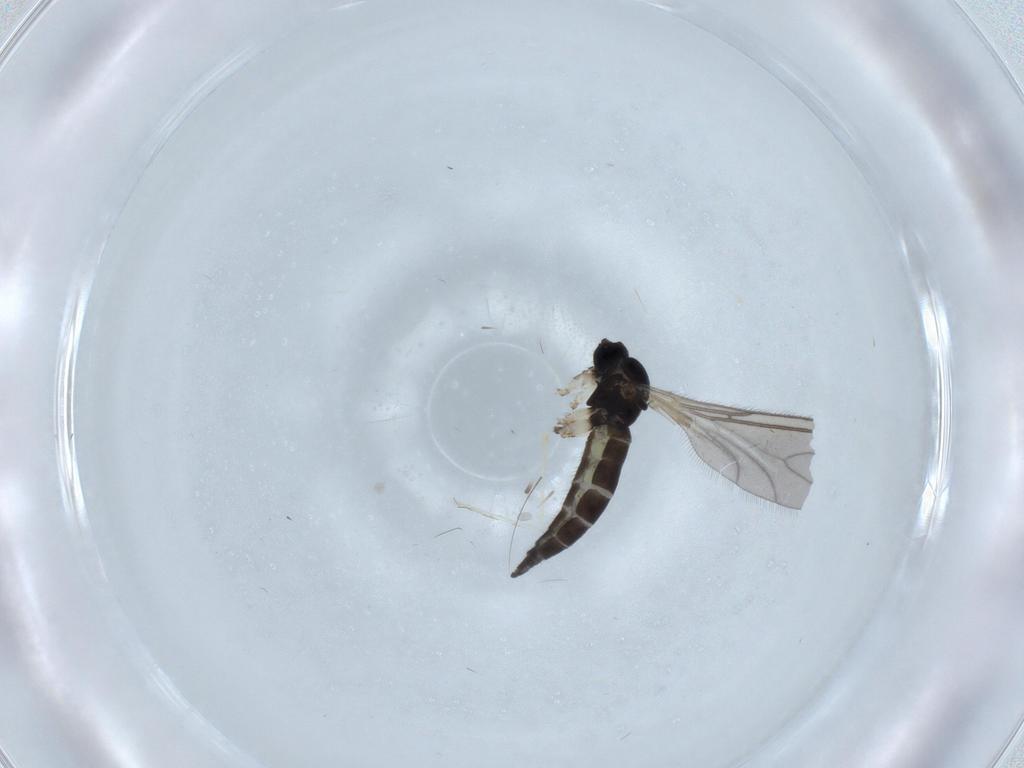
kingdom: Animalia
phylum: Arthropoda
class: Insecta
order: Diptera
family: Sciaridae
